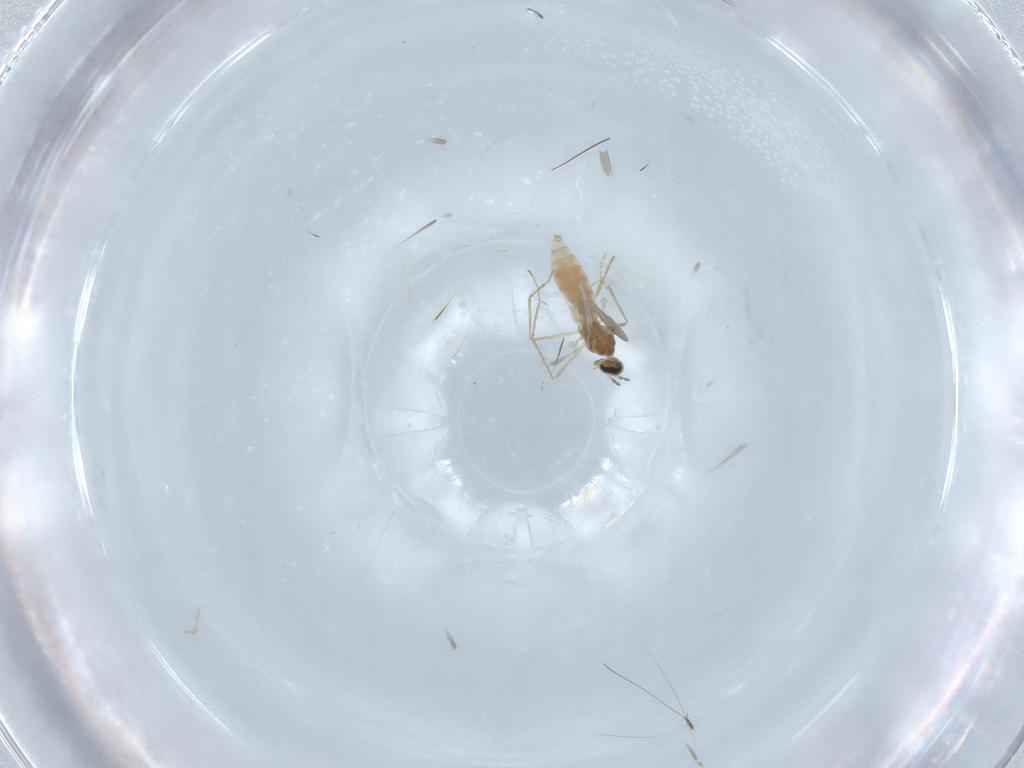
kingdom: Animalia
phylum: Arthropoda
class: Insecta
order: Diptera
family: Cecidomyiidae
